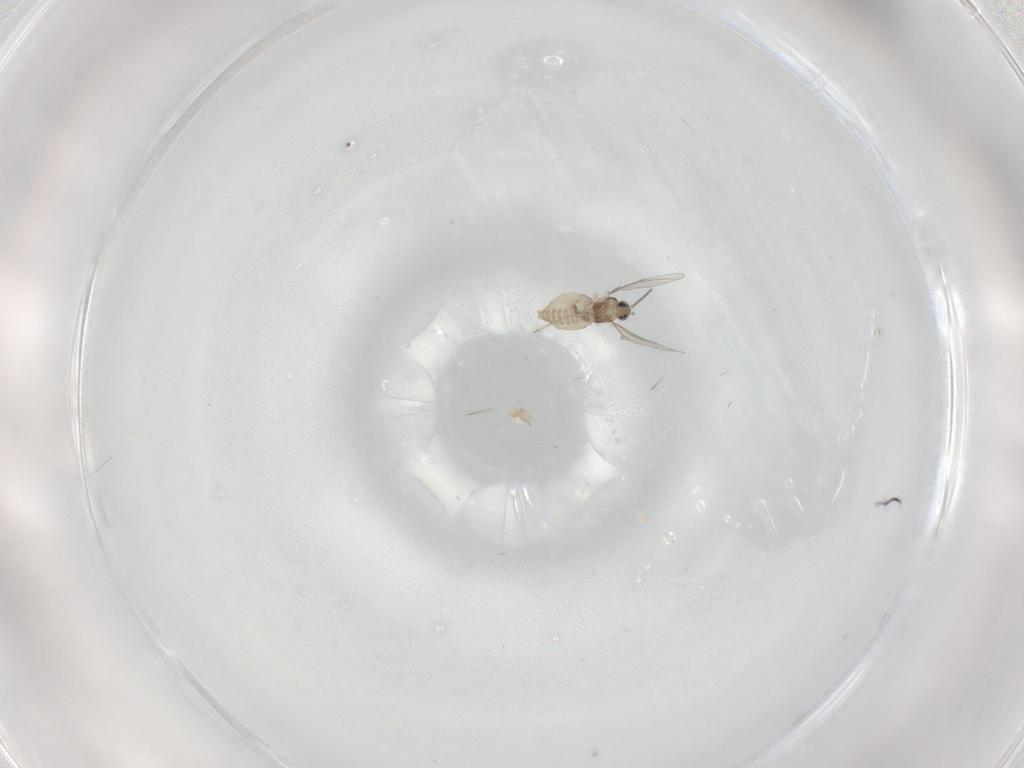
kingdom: Animalia
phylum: Arthropoda
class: Insecta
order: Diptera
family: Cecidomyiidae
